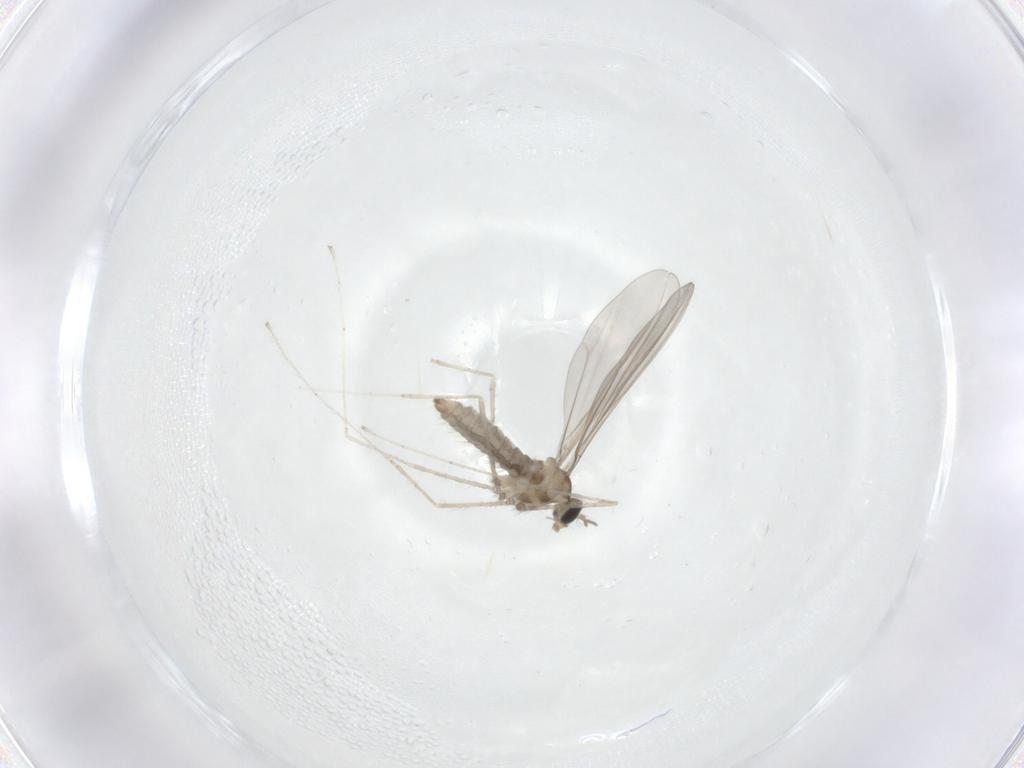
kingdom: Animalia
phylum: Arthropoda
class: Insecta
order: Diptera
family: Cecidomyiidae
